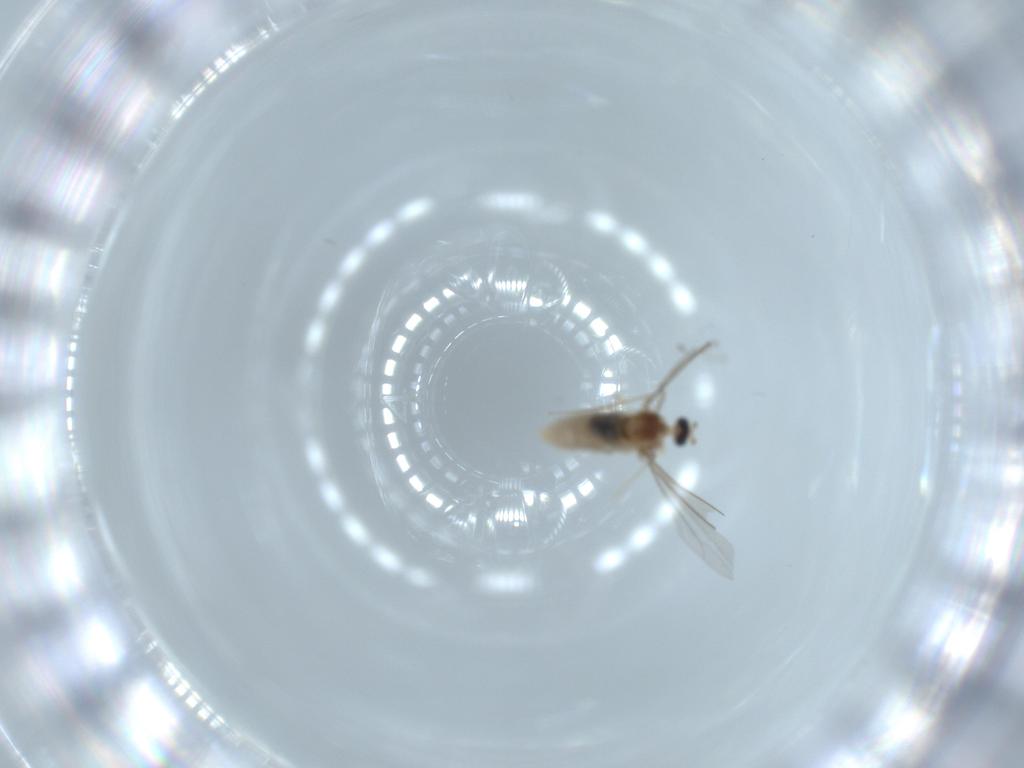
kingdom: Animalia
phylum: Arthropoda
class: Insecta
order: Diptera
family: Cecidomyiidae
